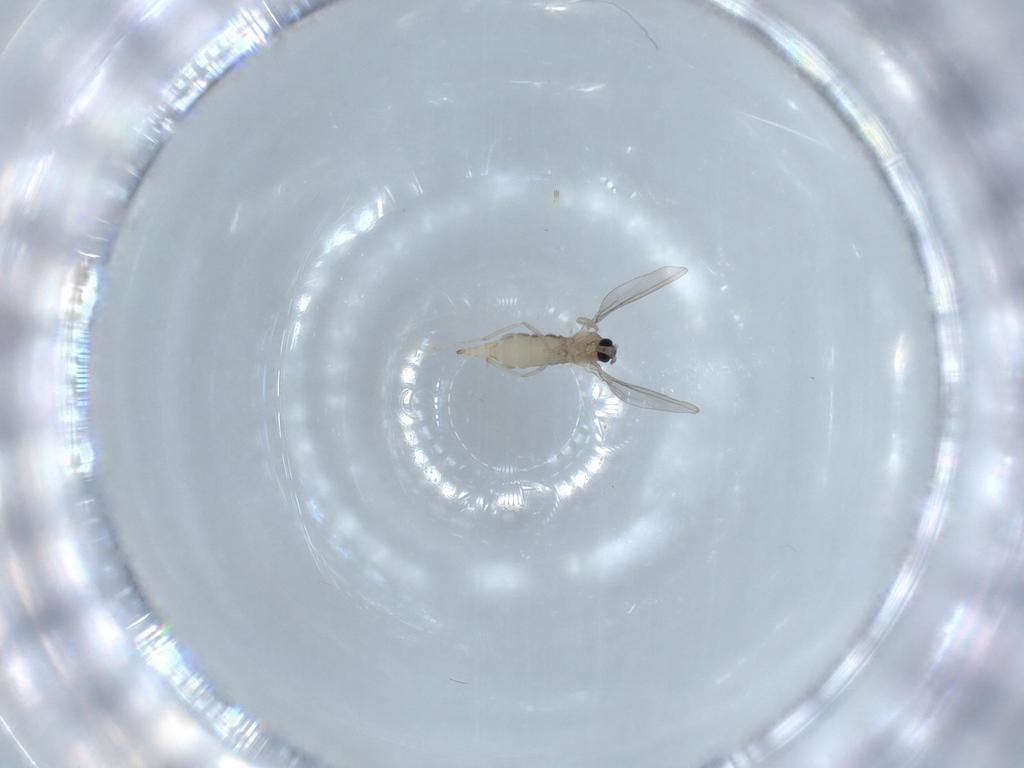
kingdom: Animalia
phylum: Arthropoda
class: Insecta
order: Diptera
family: Cecidomyiidae
